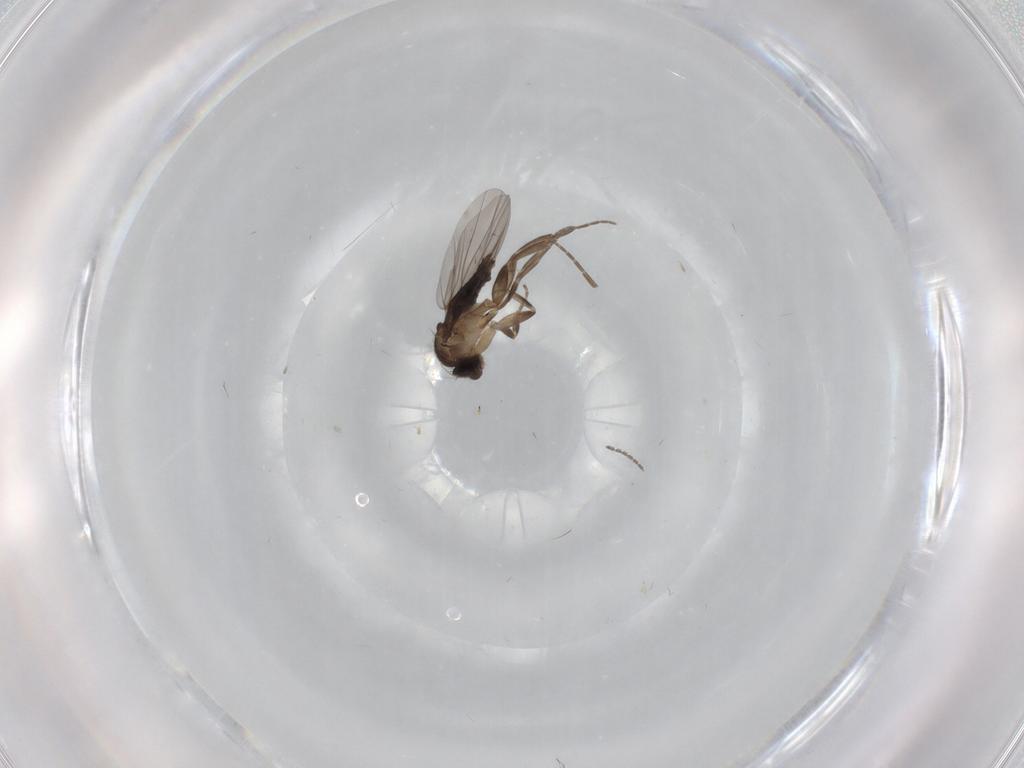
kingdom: Animalia
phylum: Arthropoda
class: Insecta
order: Diptera
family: Cecidomyiidae
